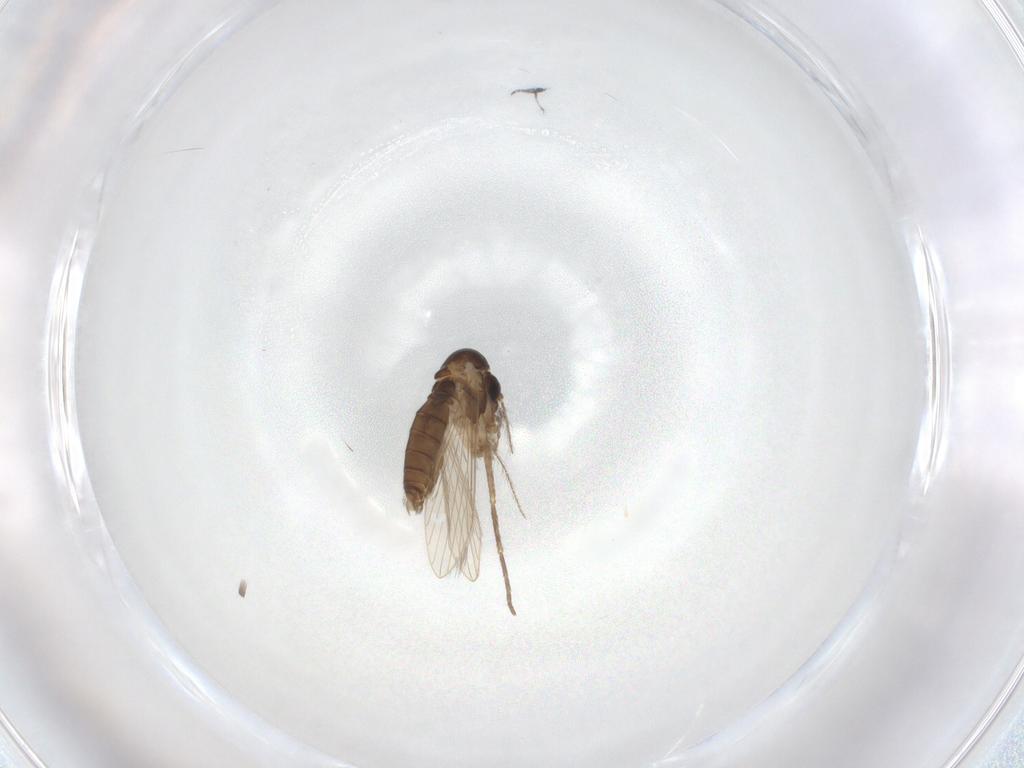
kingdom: Animalia
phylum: Arthropoda
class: Insecta
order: Diptera
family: Psychodidae
